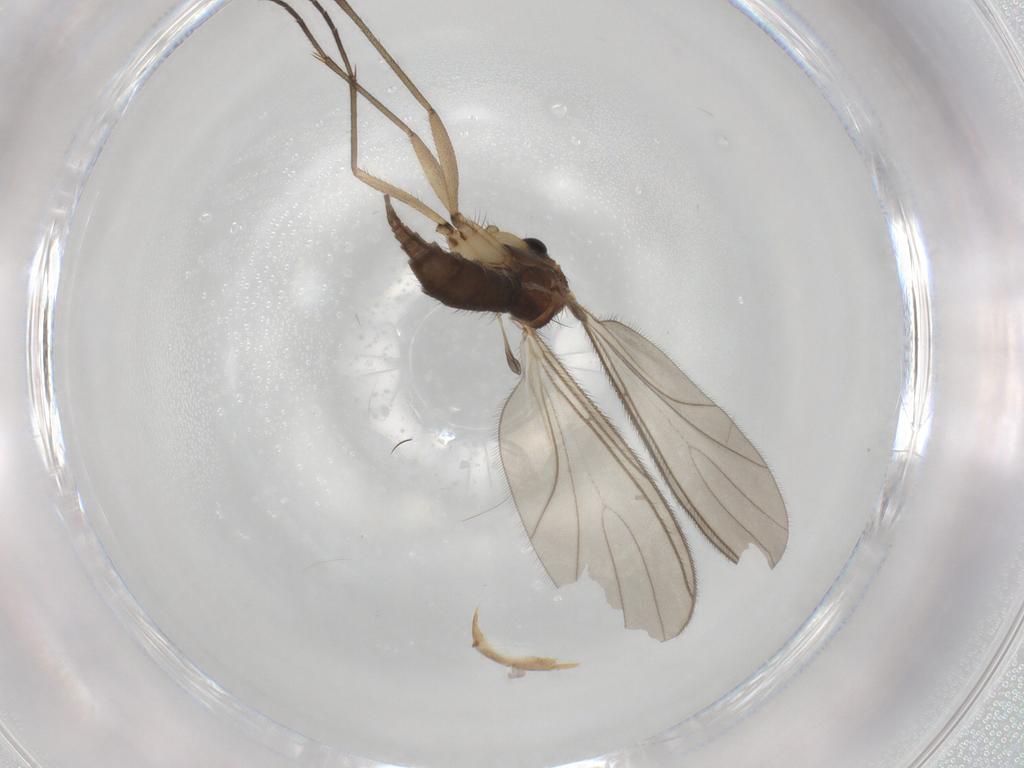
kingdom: Animalia
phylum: Arthropoda
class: Insecta
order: Diptera
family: Sciaridae
